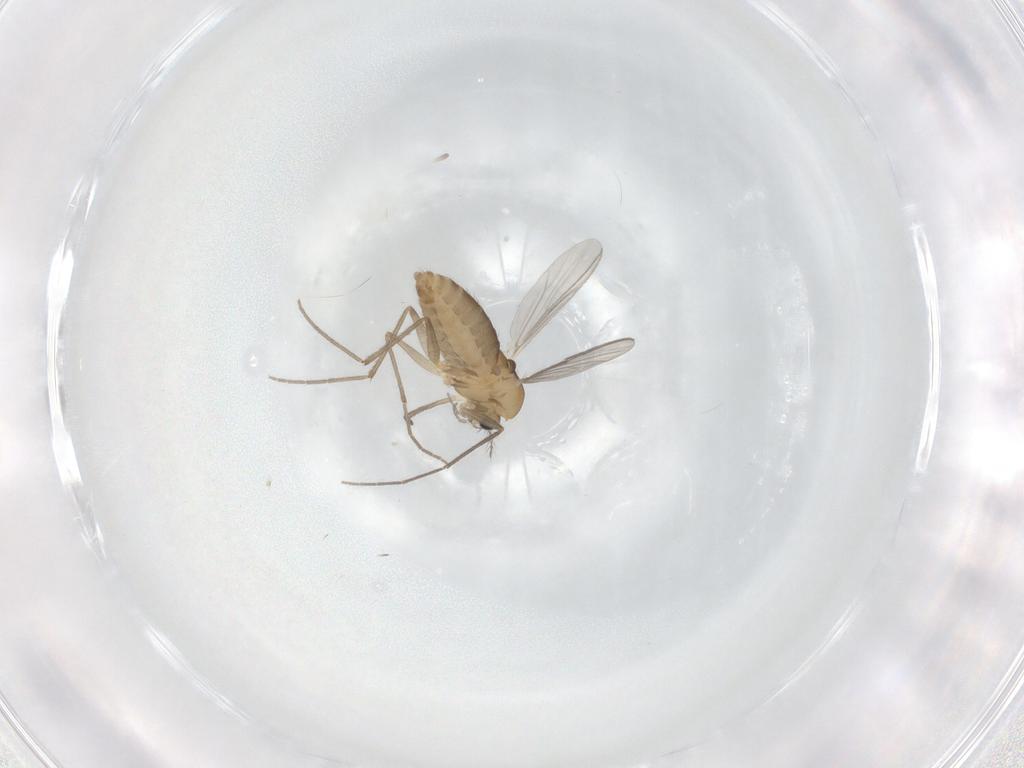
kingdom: Animalia
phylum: Arthropoda
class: Insecta
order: Diptera
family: Chironomidae
